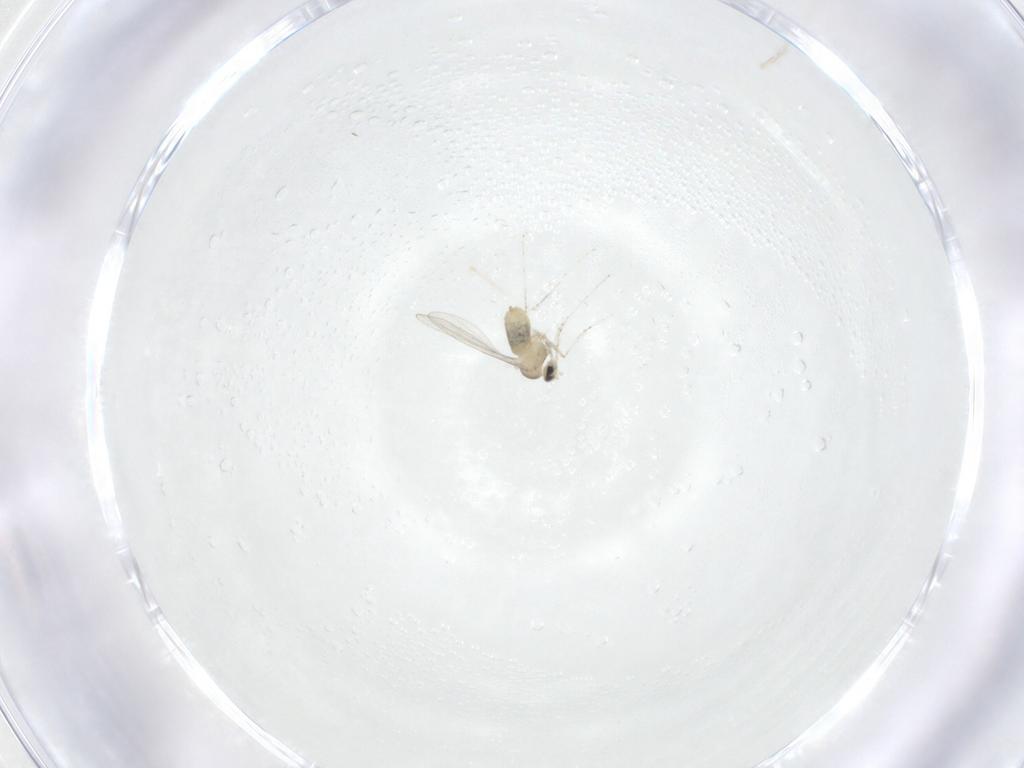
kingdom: Animalia
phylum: Arthropoda
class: Insecta
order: Diptera
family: Cecidomyiidae
